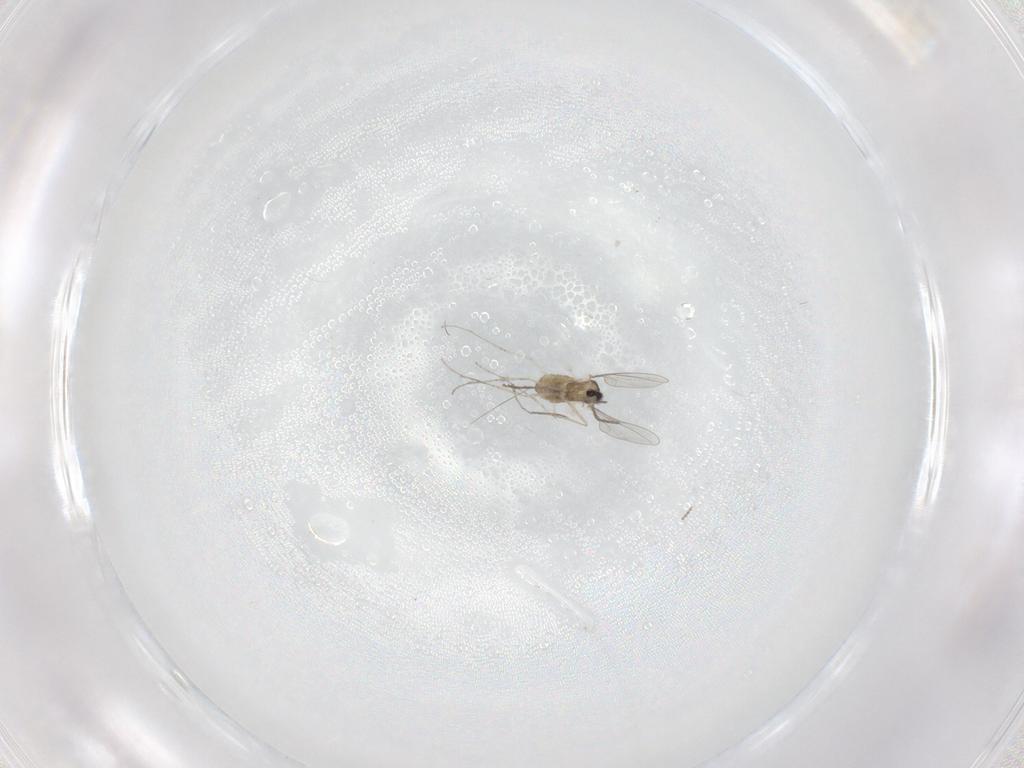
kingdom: Animalia
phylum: Arthropoda
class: Insecta
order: Diptera
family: Cecidomyiidae
